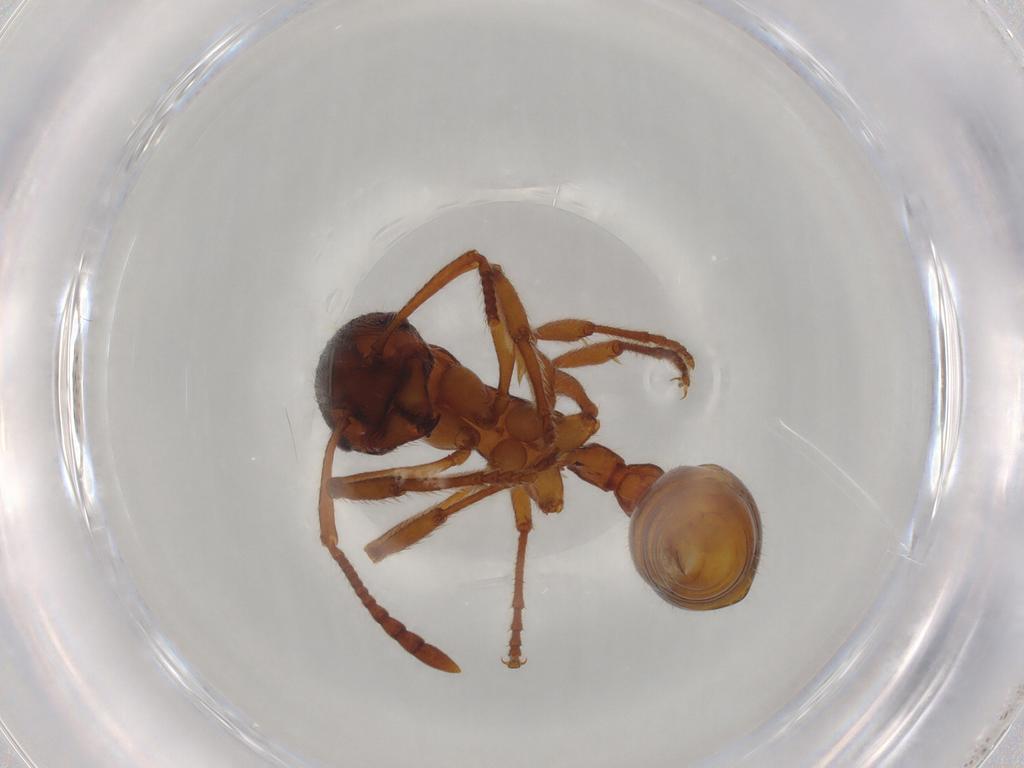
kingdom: Animalia
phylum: Arthropoda
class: Insecta
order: Hymenoptera
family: Formicidae
